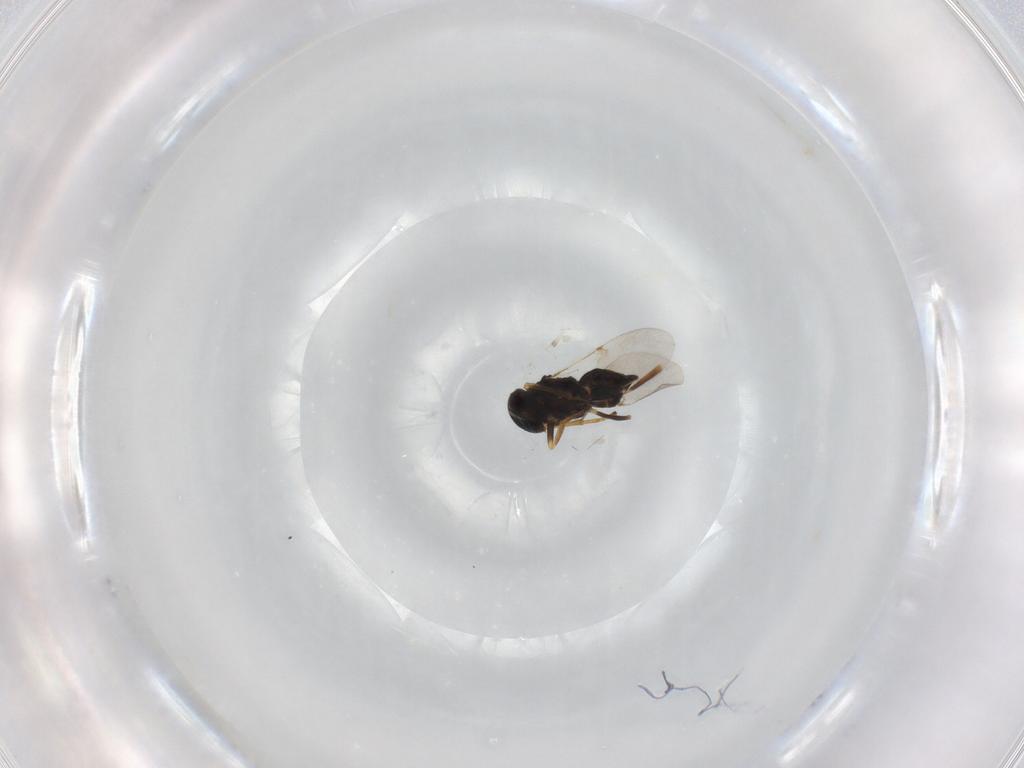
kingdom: Animalia
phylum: Arthropoda
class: Insecta
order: Hymenoptera
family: Encyrtidae
